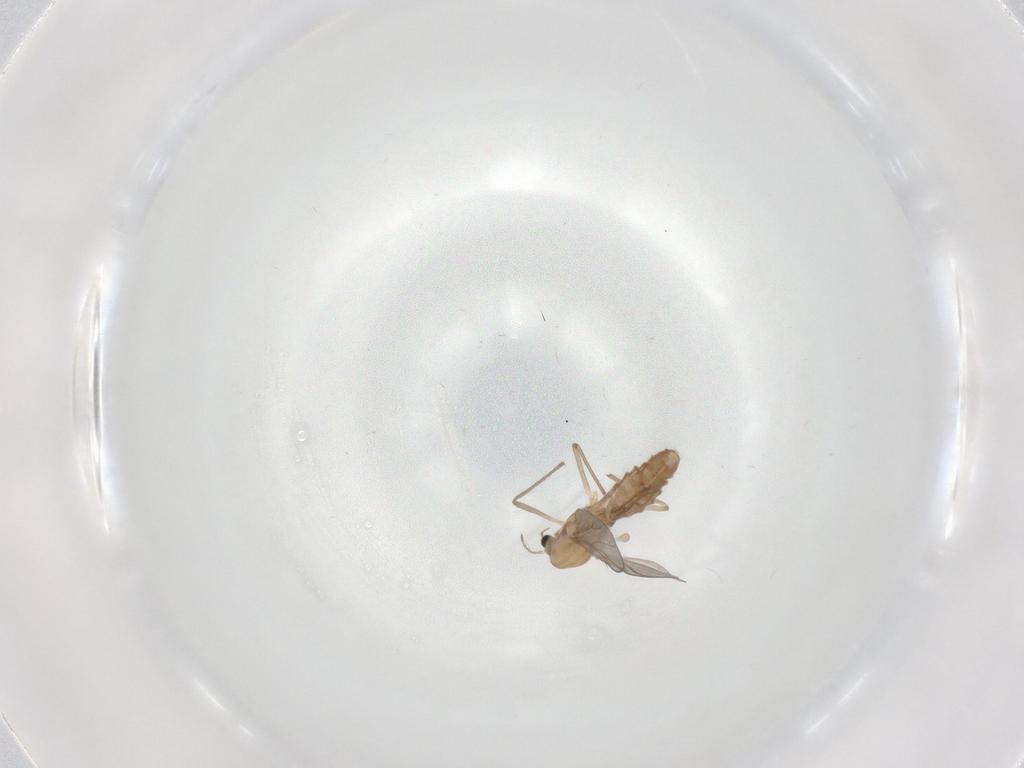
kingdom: Animalia
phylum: Arthropoda
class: Insecta
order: Diptera
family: Chironomidae
